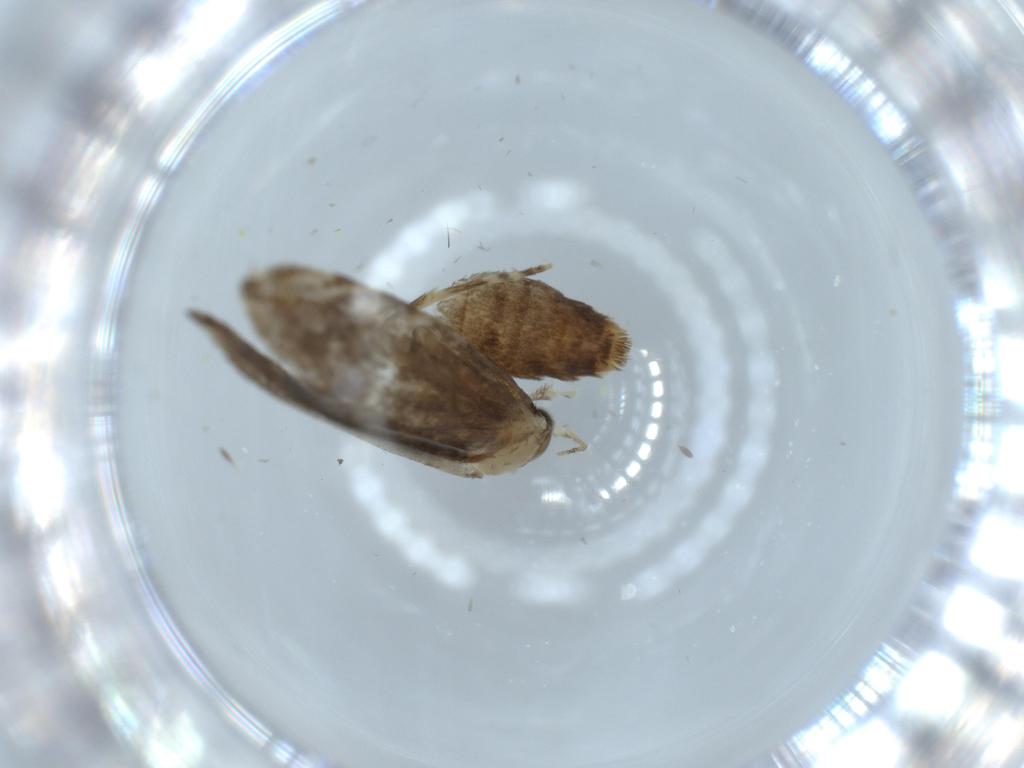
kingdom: Animalia
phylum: Arthropoda
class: Insecta
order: Lepidoptera
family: Tineidae
